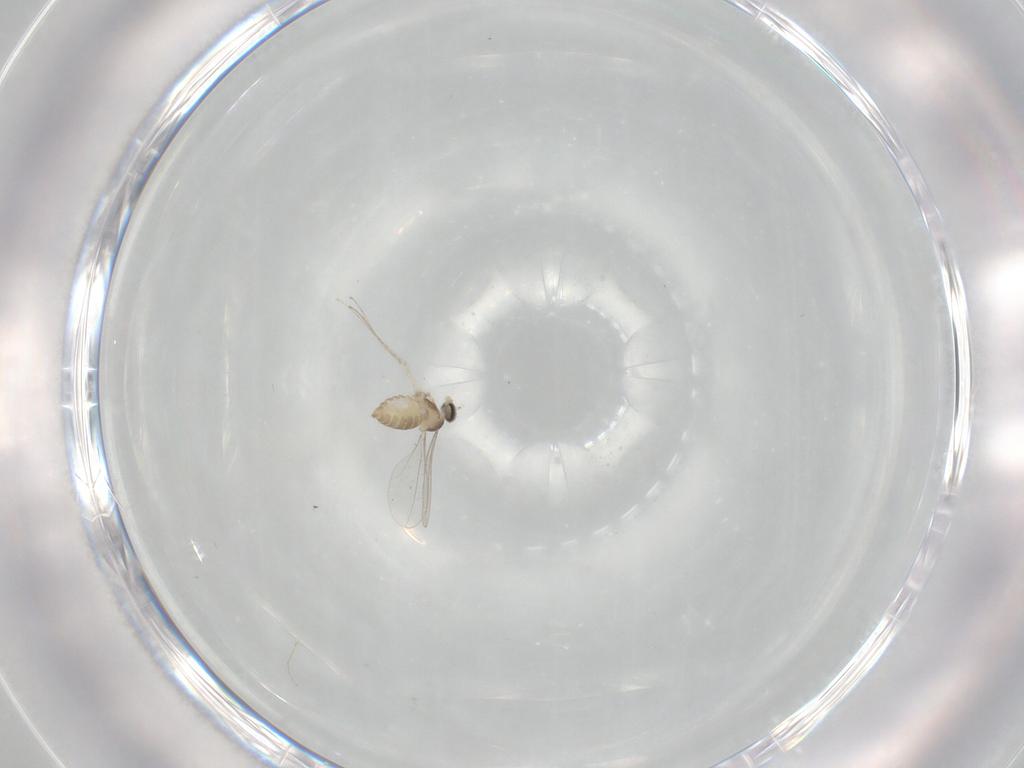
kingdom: Animalia
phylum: Arthropoda
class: Insecta
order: Diptera
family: Cecidomyiidae
